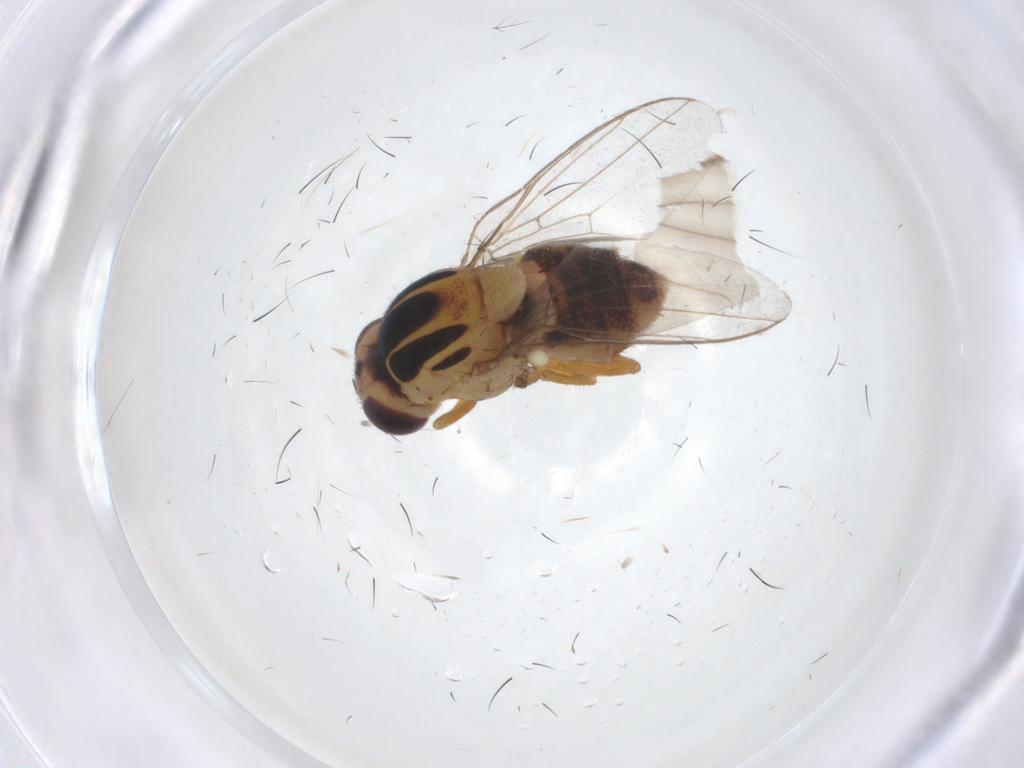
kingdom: Animalia
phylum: Arthropoda
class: Insecta
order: Diptera
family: Chloropidae
